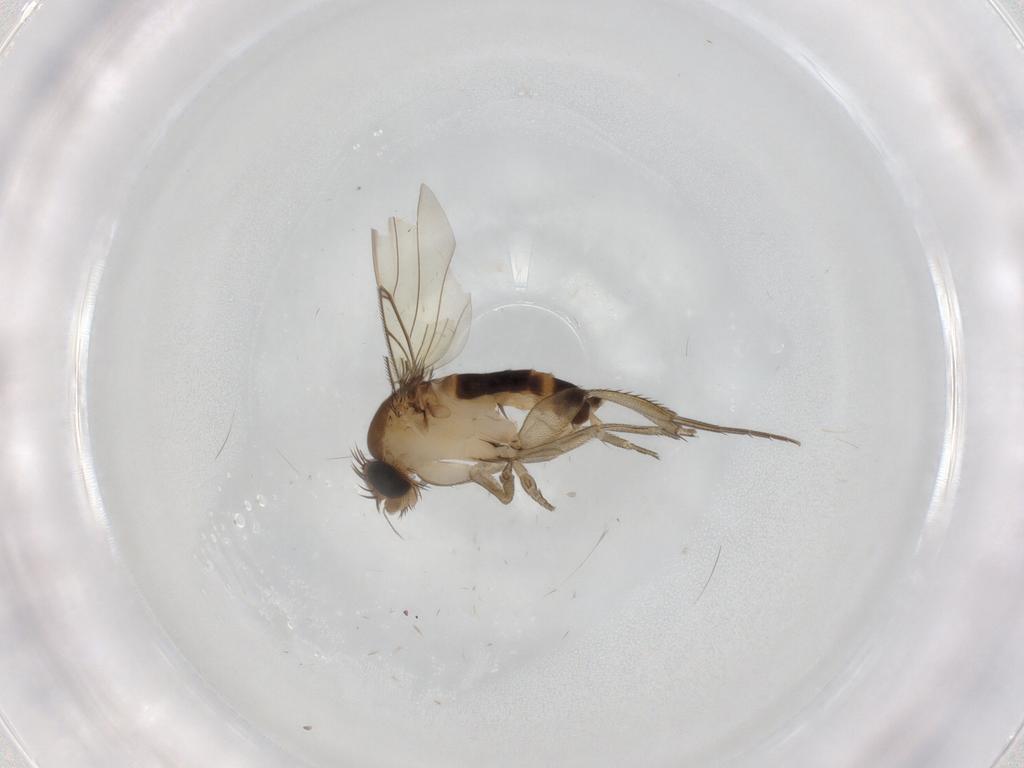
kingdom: Animalia
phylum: Arthropoda
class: Insecta
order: Diptera
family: Phoridae
